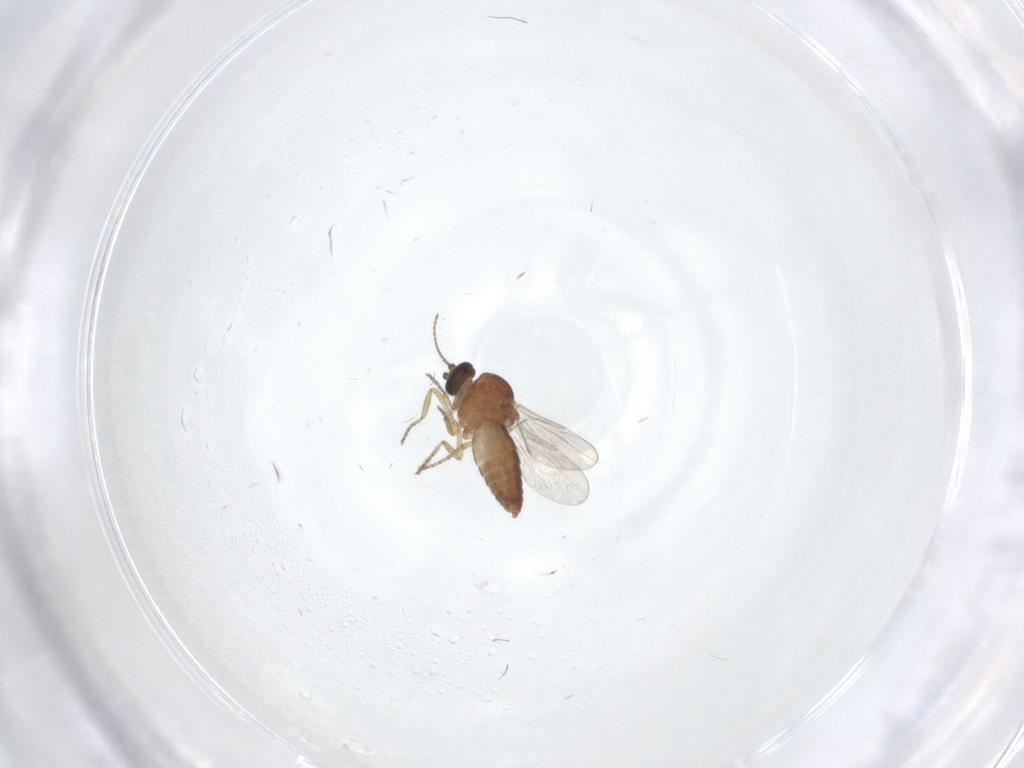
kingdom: Animalia
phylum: Arthropoda
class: Insecta
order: Diptera
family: Ceratopogonidae
